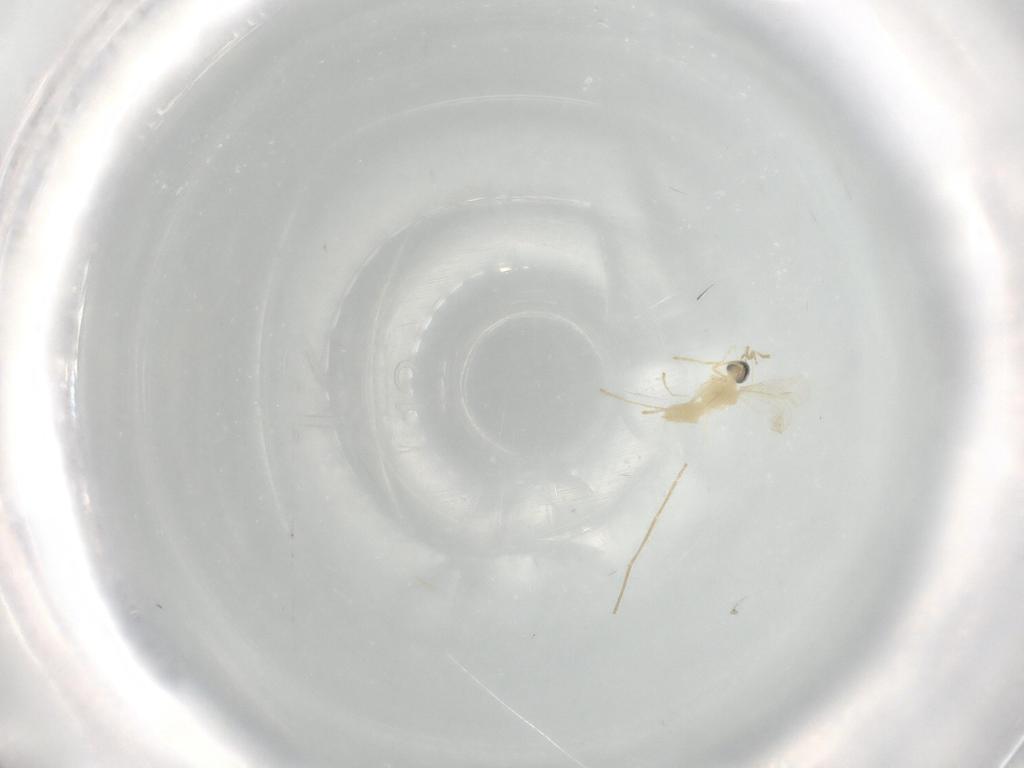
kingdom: Animalia
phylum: Arthropoda
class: Insecta
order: Diptera
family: Cecidomyiidae
